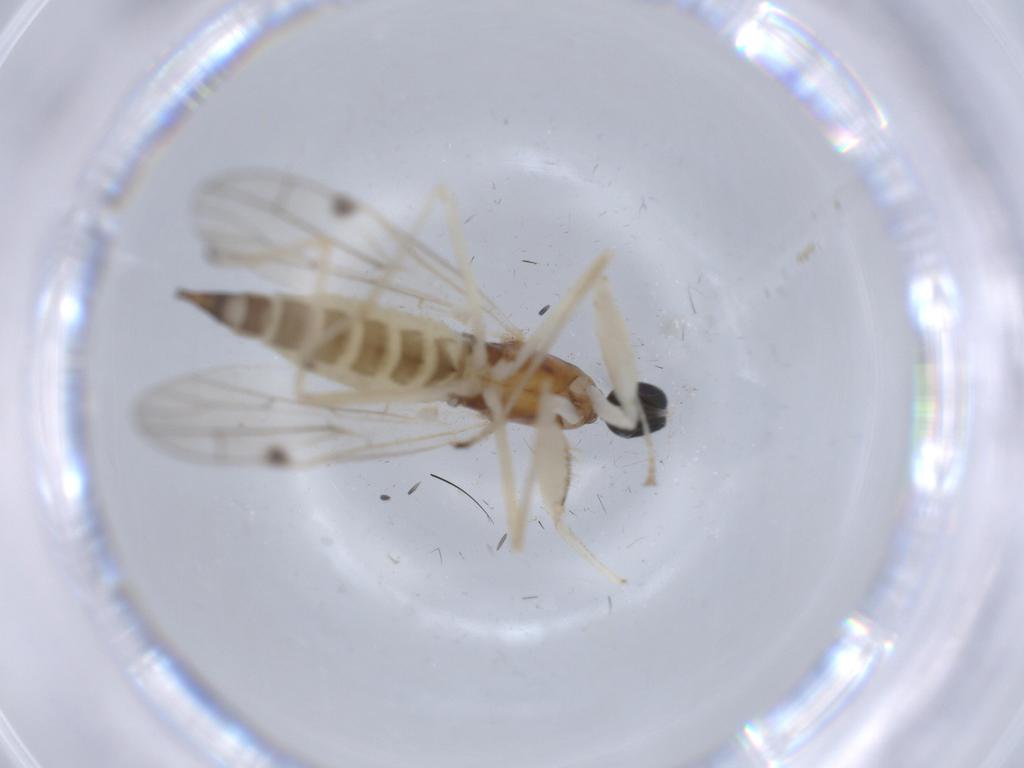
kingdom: Animalia
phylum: Arthropoda
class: Insecta
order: Diptera
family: Empididae
